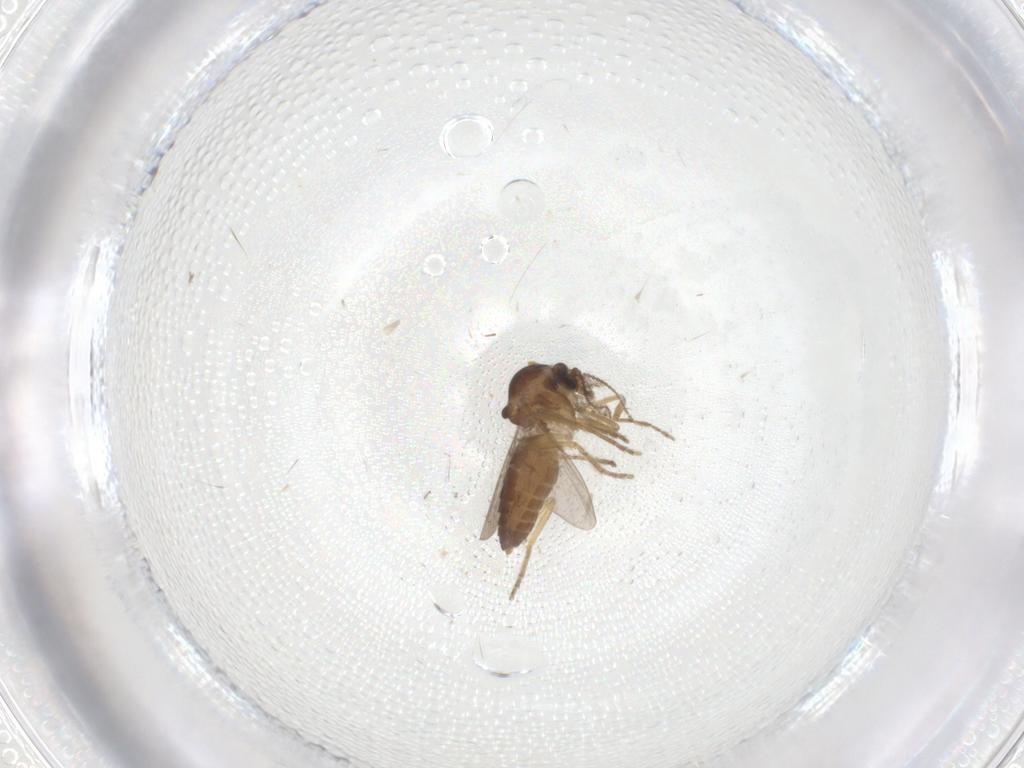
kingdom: Animalia
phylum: Arthropoda
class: Insecta
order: Diptera
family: Ceratopogonidae
